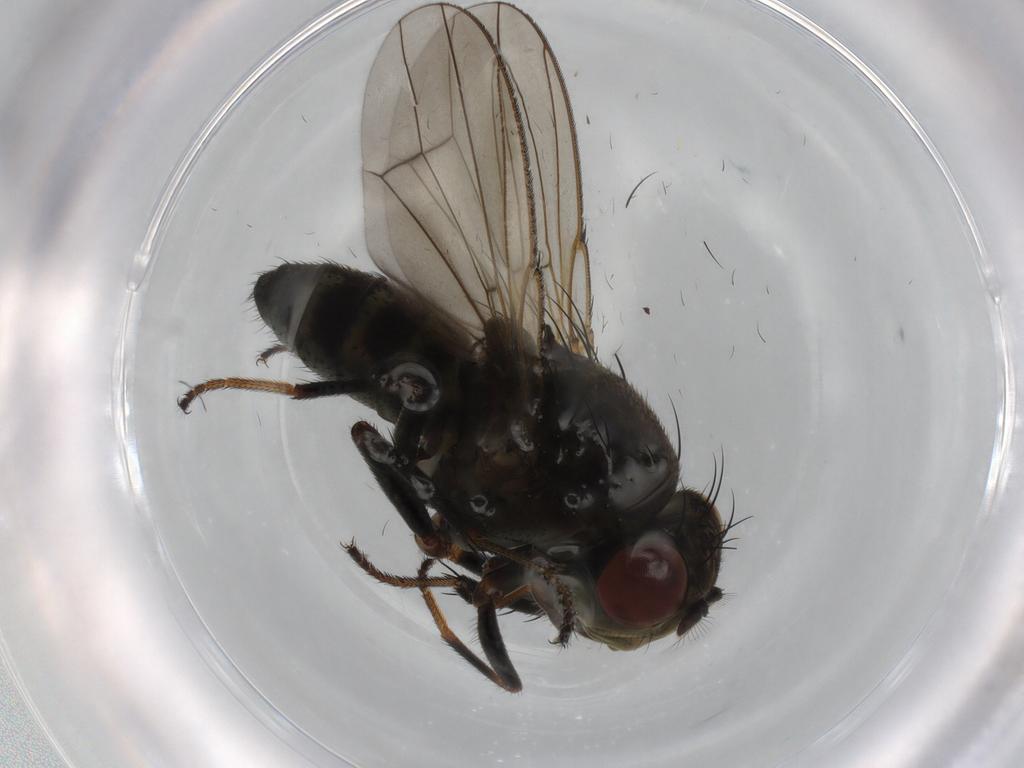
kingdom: Animalia
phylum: Arthropoda
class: Insecta
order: Diptera
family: Ephydridae
